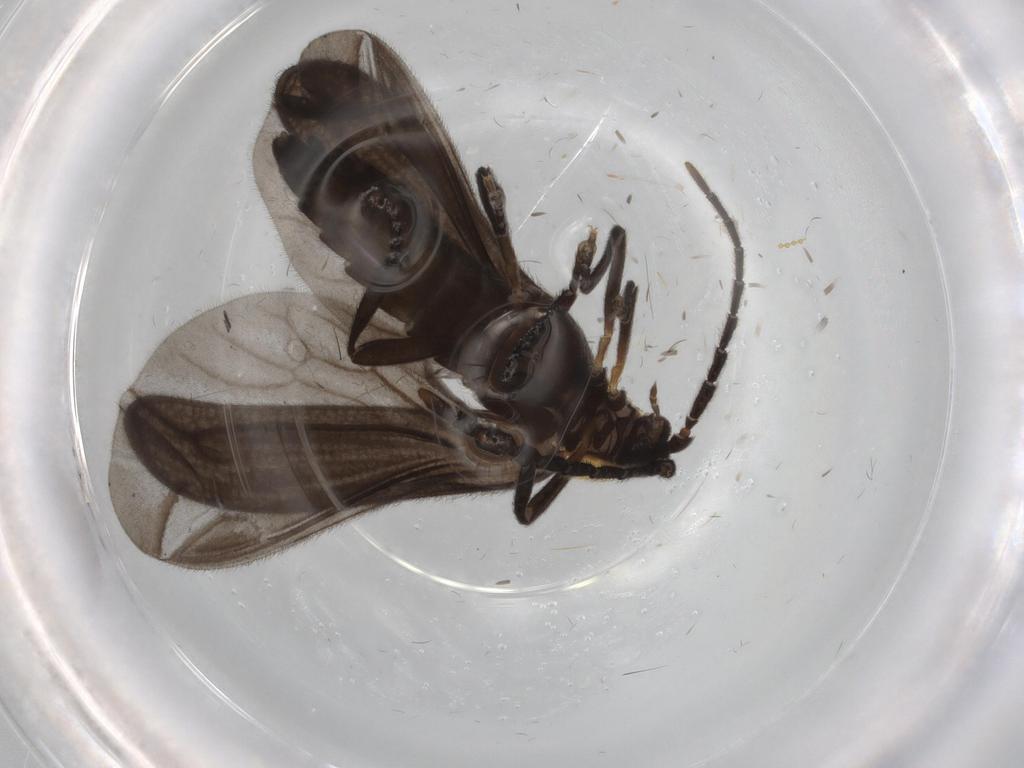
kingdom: Animalia
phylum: Arthropoda
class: Insecta
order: Coleoptera
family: Lycidae
